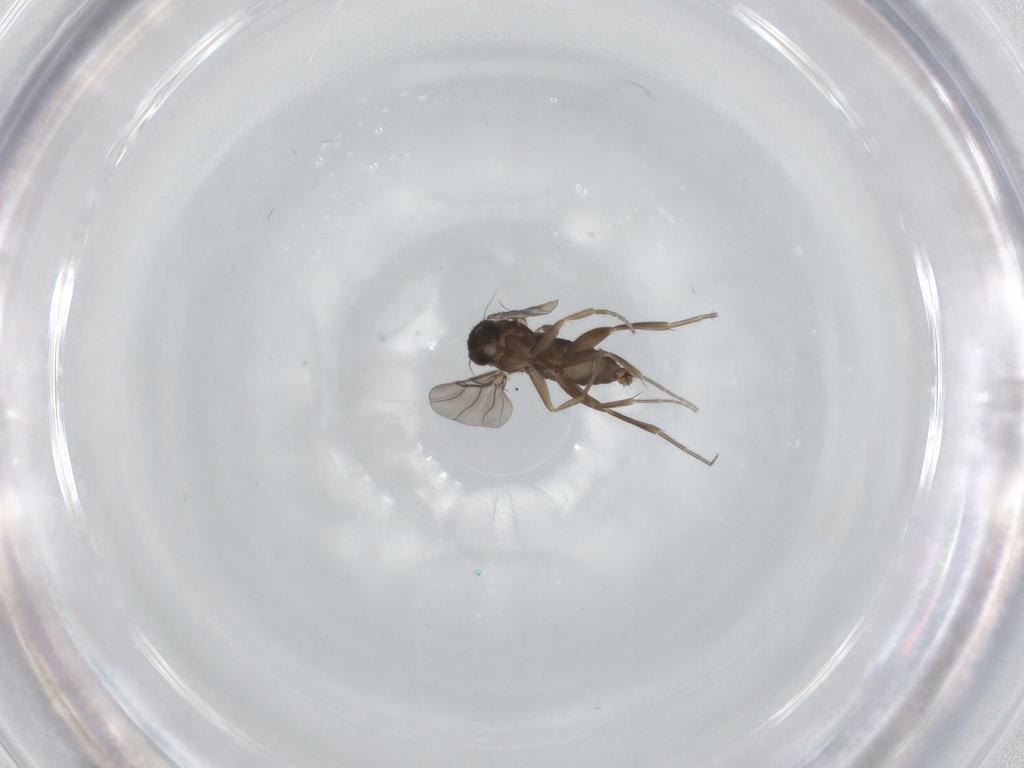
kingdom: Animalia
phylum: Arthropoda
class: Insecta
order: Diptera
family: Phoridae
